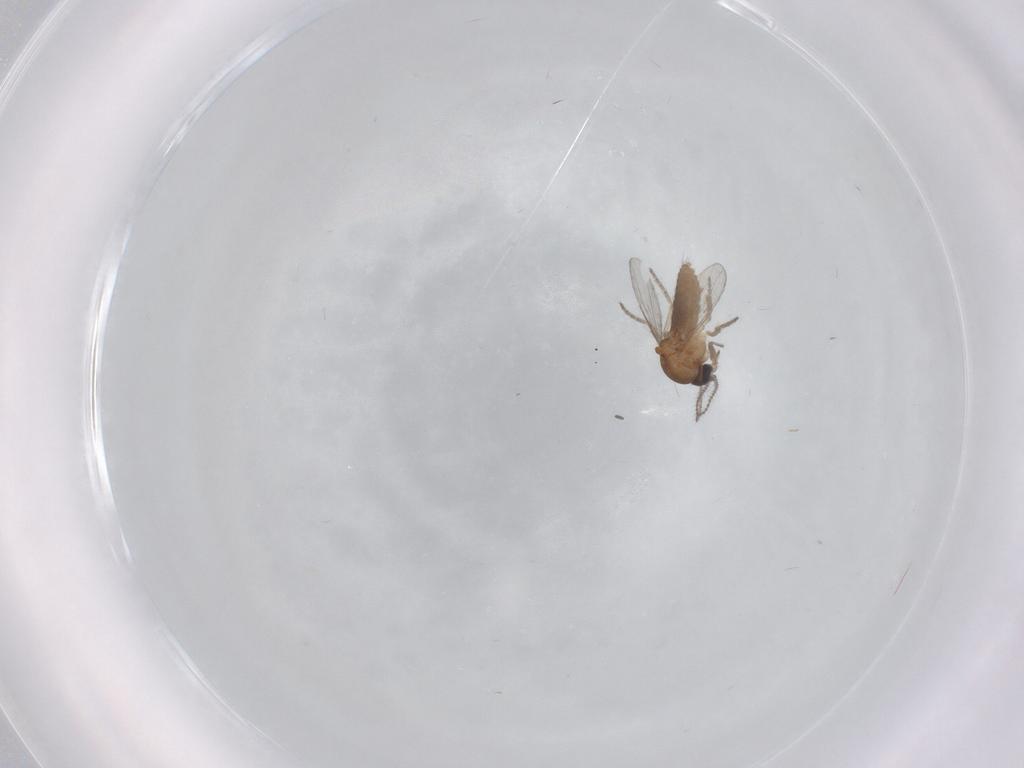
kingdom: Animalia
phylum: Arthropoda
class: Insecta
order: Diptera
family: Ceratopogonidae
